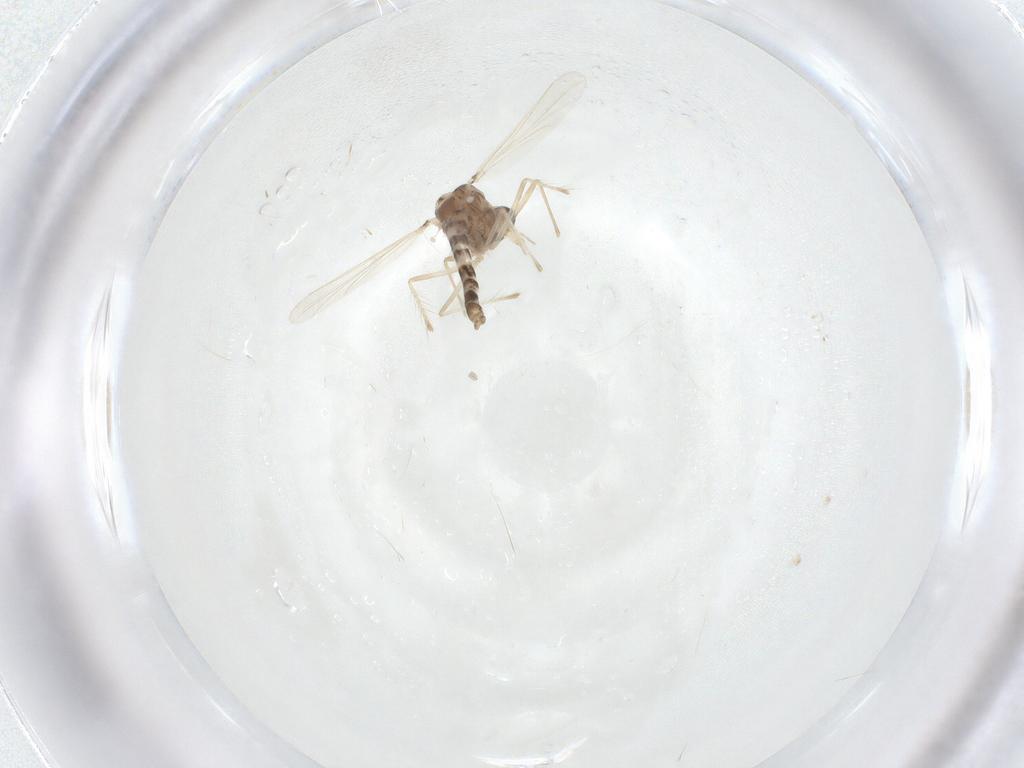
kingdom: Animalia
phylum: Arthropoda
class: Insecta
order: Diptera
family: Chironomidae
